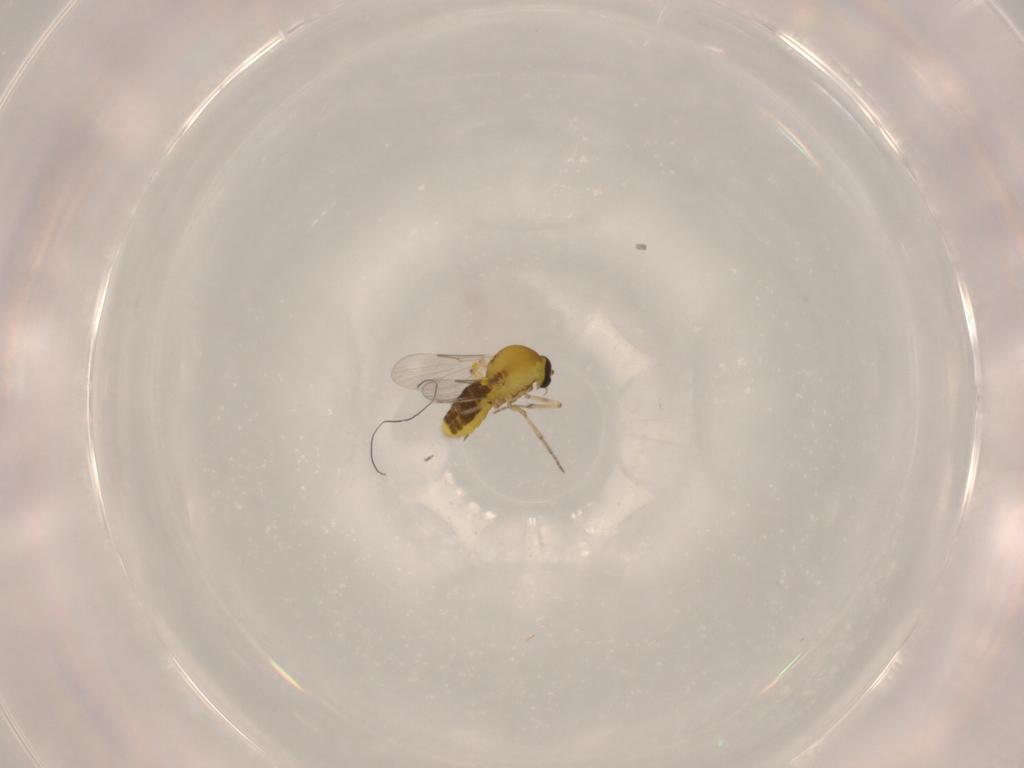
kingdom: Animalia
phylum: Arthropoda
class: Insecta
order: Diptera
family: Ceratopogonidae
